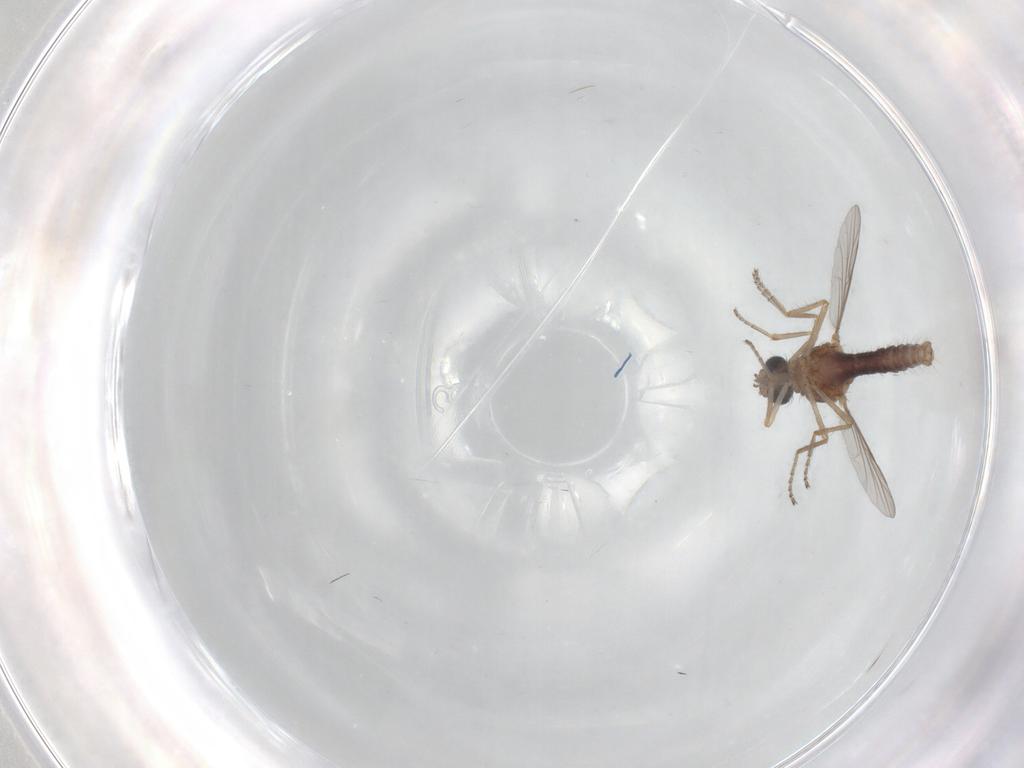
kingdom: Animalia
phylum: Arthropoda
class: Insecta
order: Diptera
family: Ceratopogonidae
